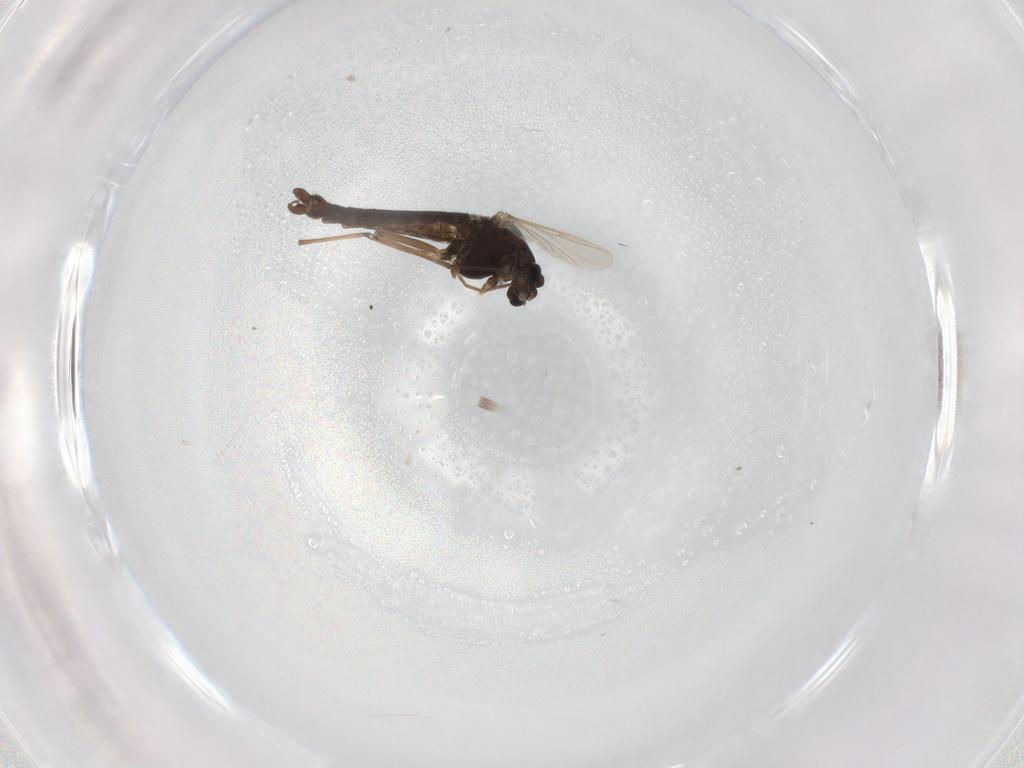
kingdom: Animalia
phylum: Arthropoda
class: Insecta
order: Diptera
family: Chironomidae
